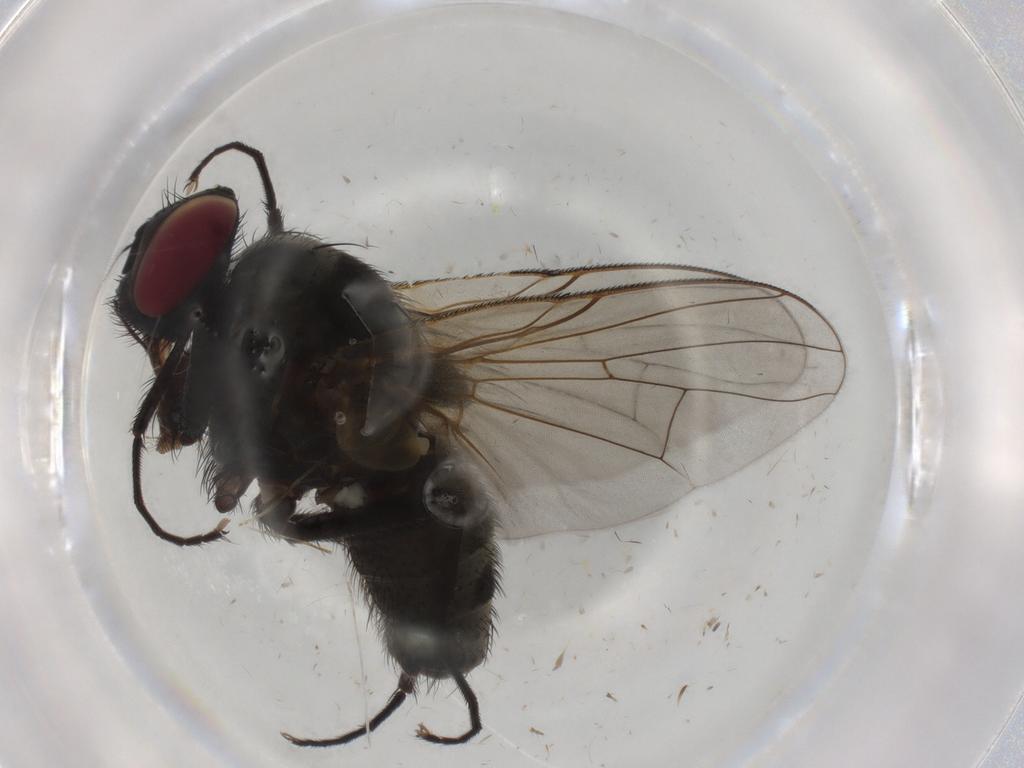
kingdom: Animalia
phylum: Arthropoda
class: Insecta
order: Diptera
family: Muscidae
